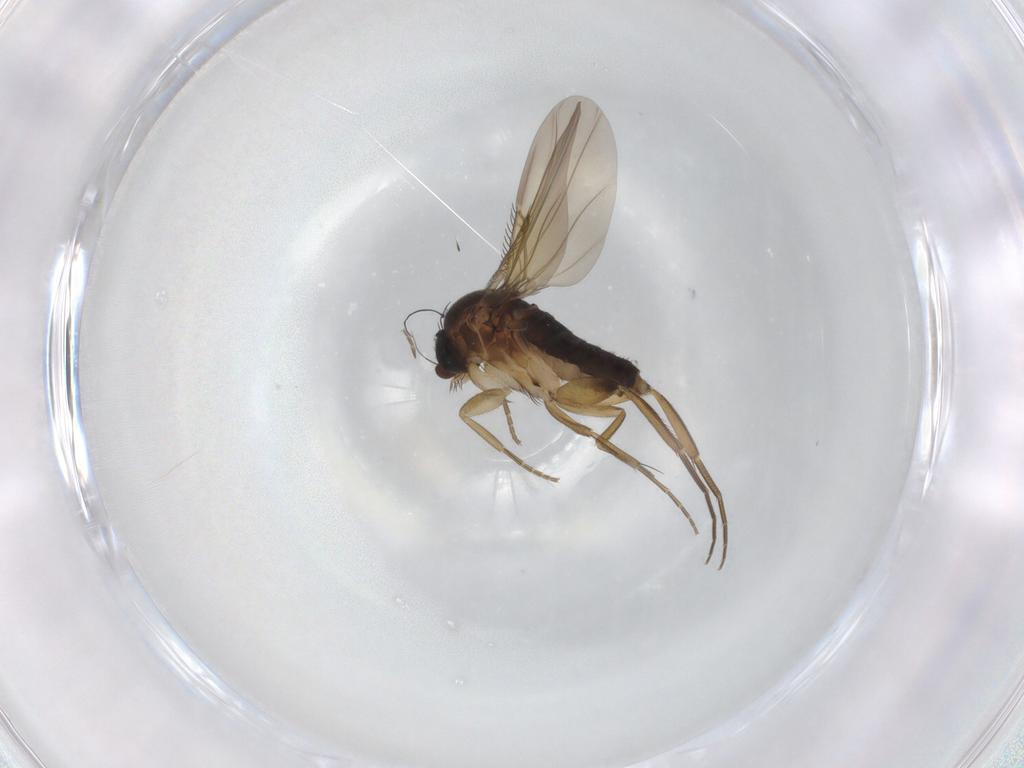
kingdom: Animalia
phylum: Arthropoda
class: Insecta
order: Diptera
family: Phoridae
